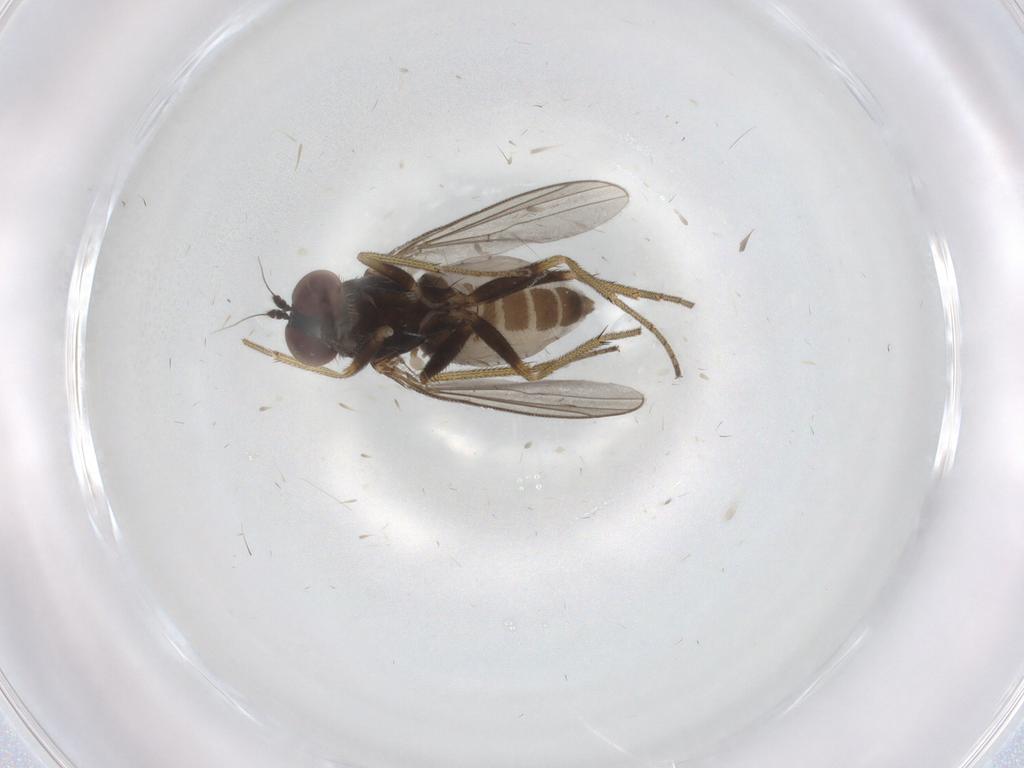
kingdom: Animalia
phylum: Arthropoda
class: Insecta
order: Diptera
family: Dolichopodidae
